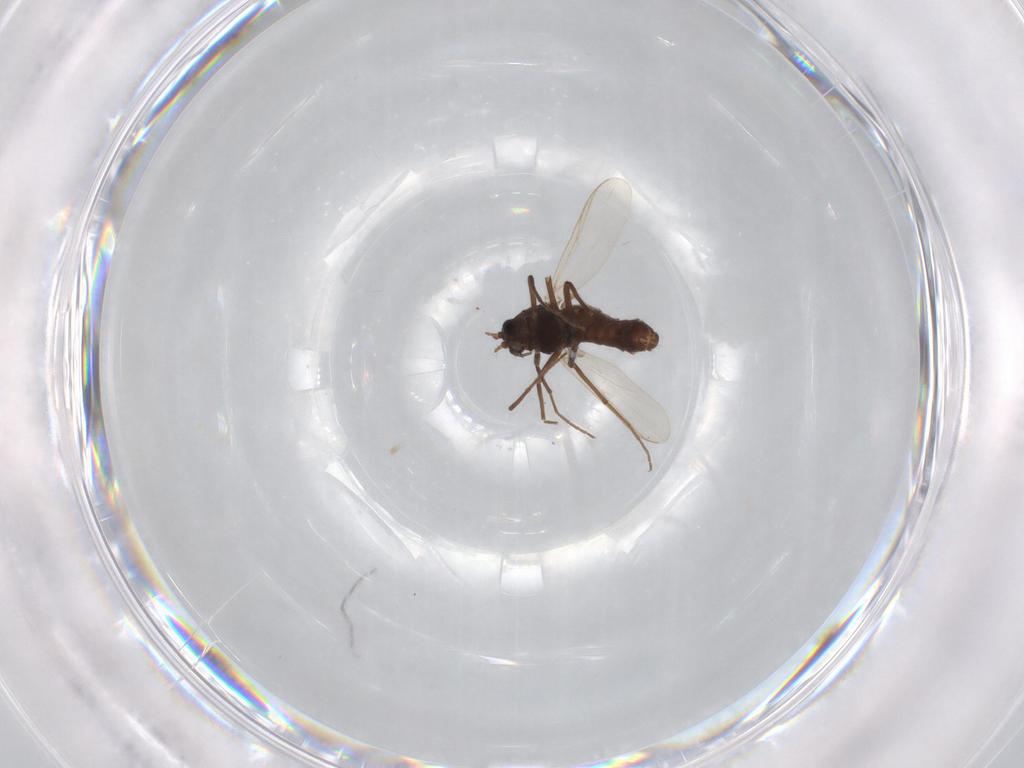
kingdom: Animalia
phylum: Arthropoda
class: Insecta
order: Diptera
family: Chironomidae
